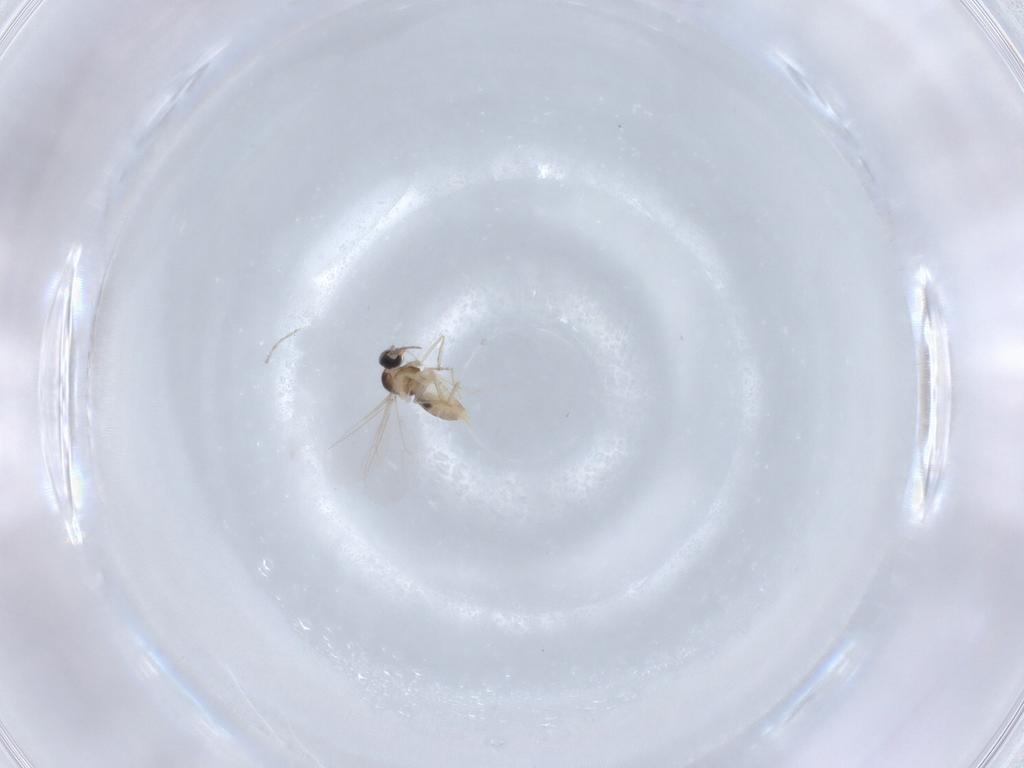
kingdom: Animalia
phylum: Arthropoda
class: Insecta
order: Diptera
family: Cecidomyiidae
